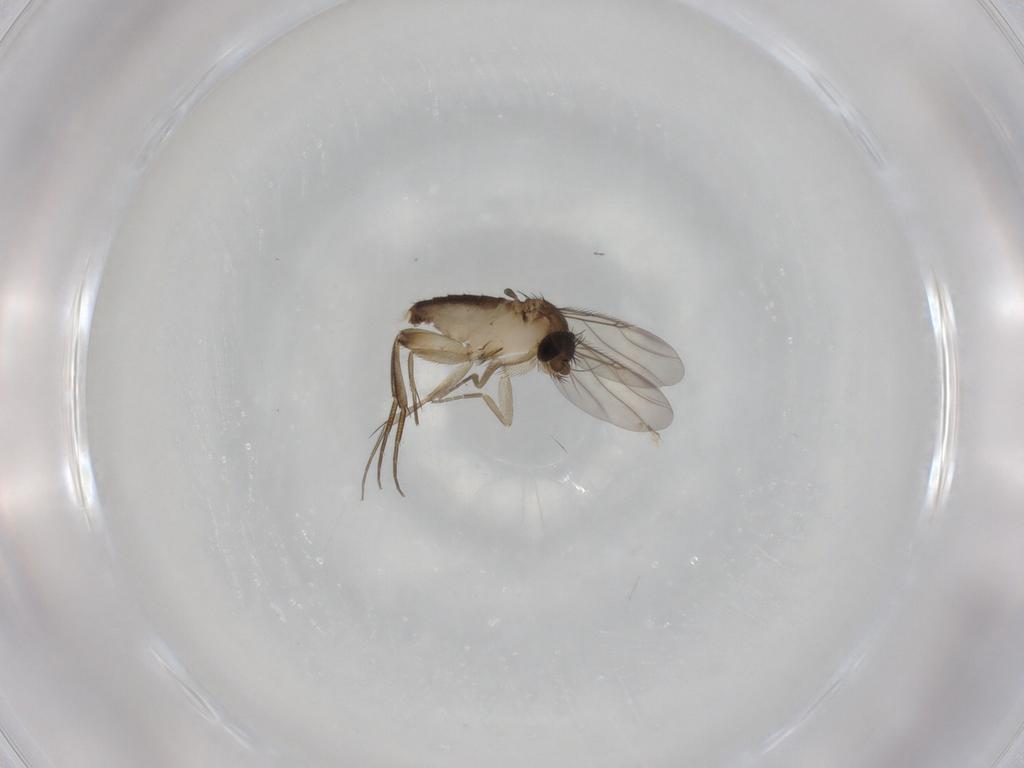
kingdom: Animalia
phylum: Arthropoda
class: Insecta
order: Diptera
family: Phoridae
